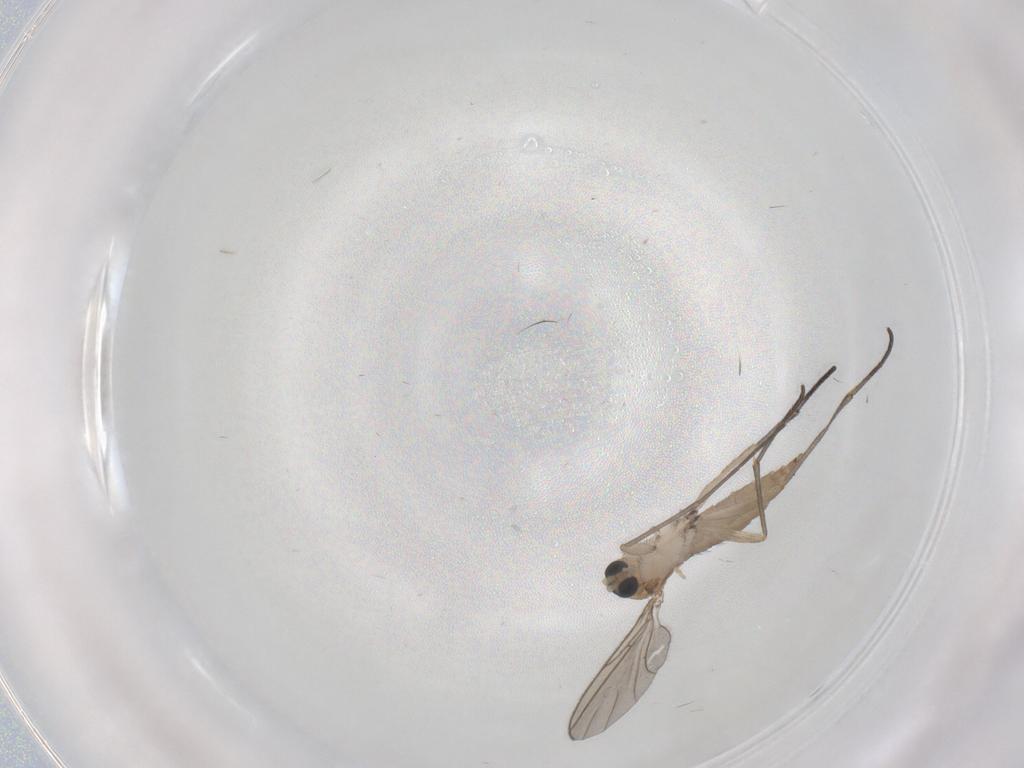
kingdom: Animalia
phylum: Arthropoda
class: Insecta
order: Diptera
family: Sciaridae
